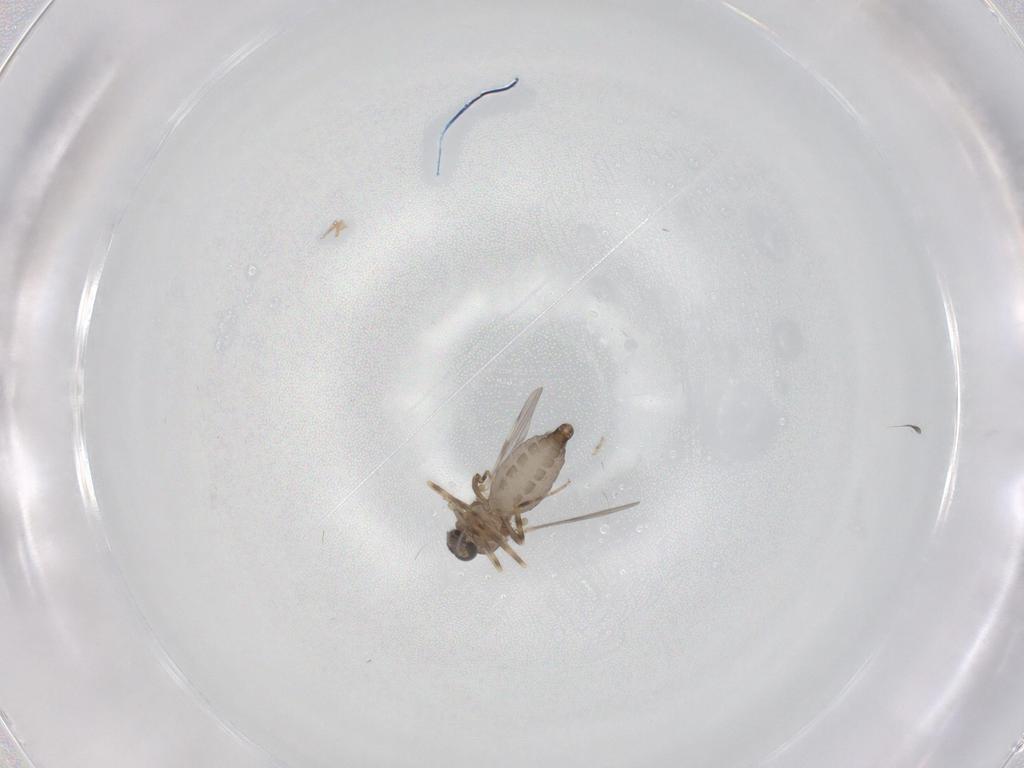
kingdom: Animalia
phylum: Arthropoda
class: Insecta
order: Diptera
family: Ceratopogonidae
